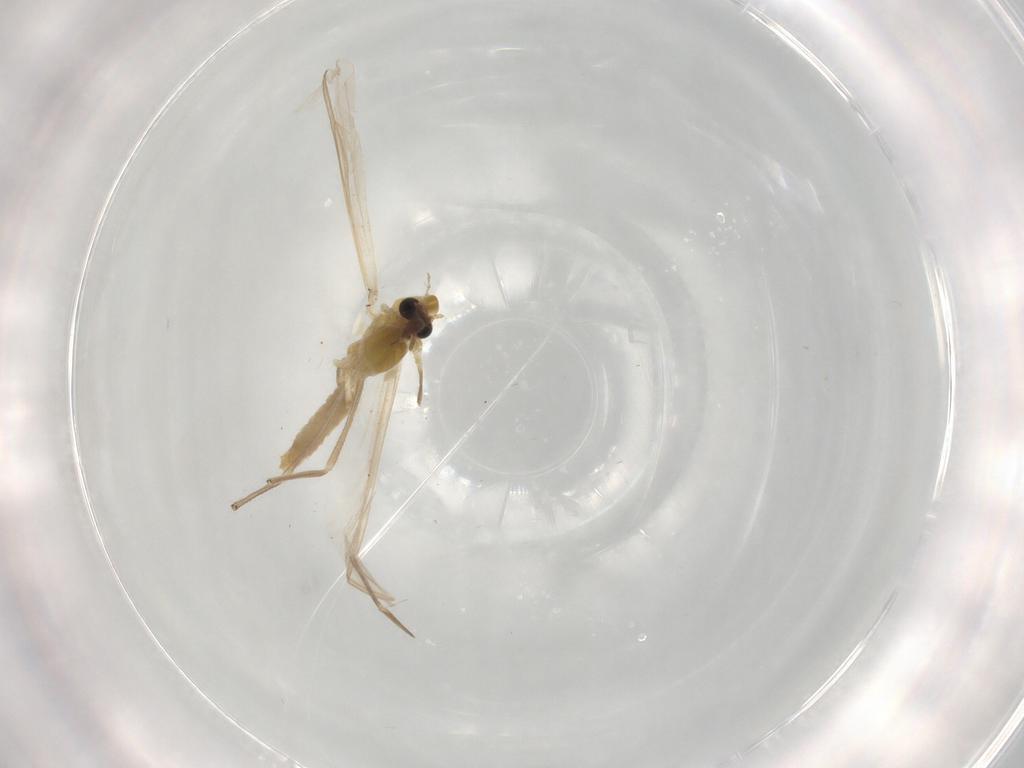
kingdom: Animalia
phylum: Arthropoda
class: Insecta
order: Diptera
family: Chironomidae
